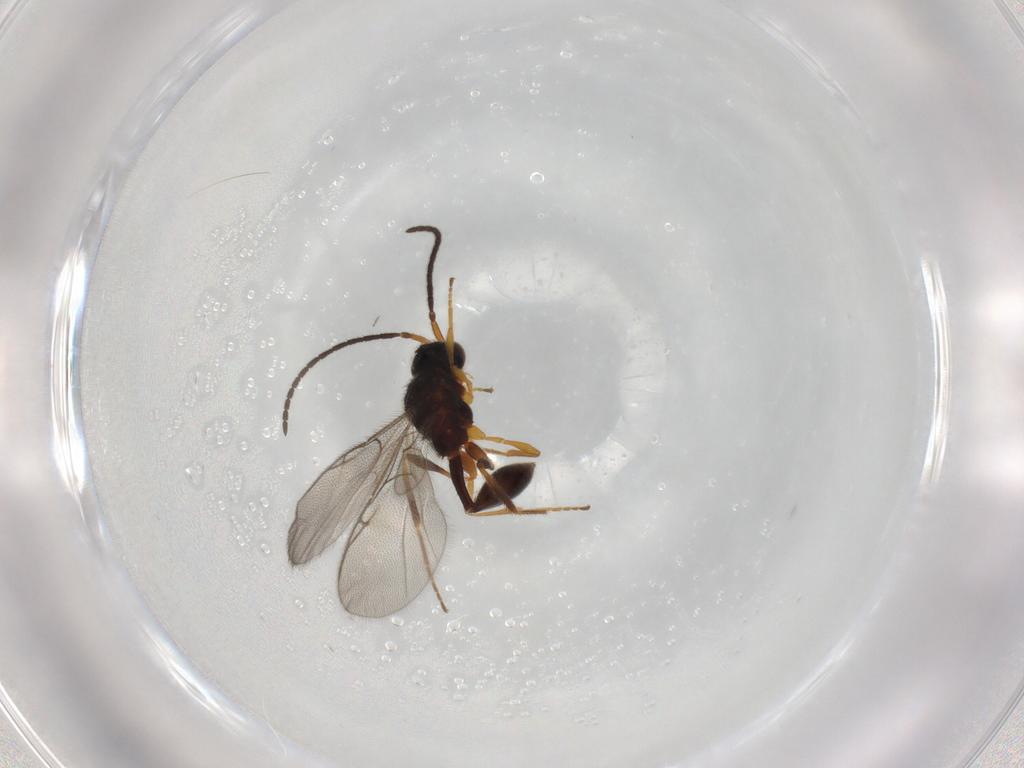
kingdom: Animalia
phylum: Arthropoda
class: Insecta
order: Hymenoptera
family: Diapriidae
